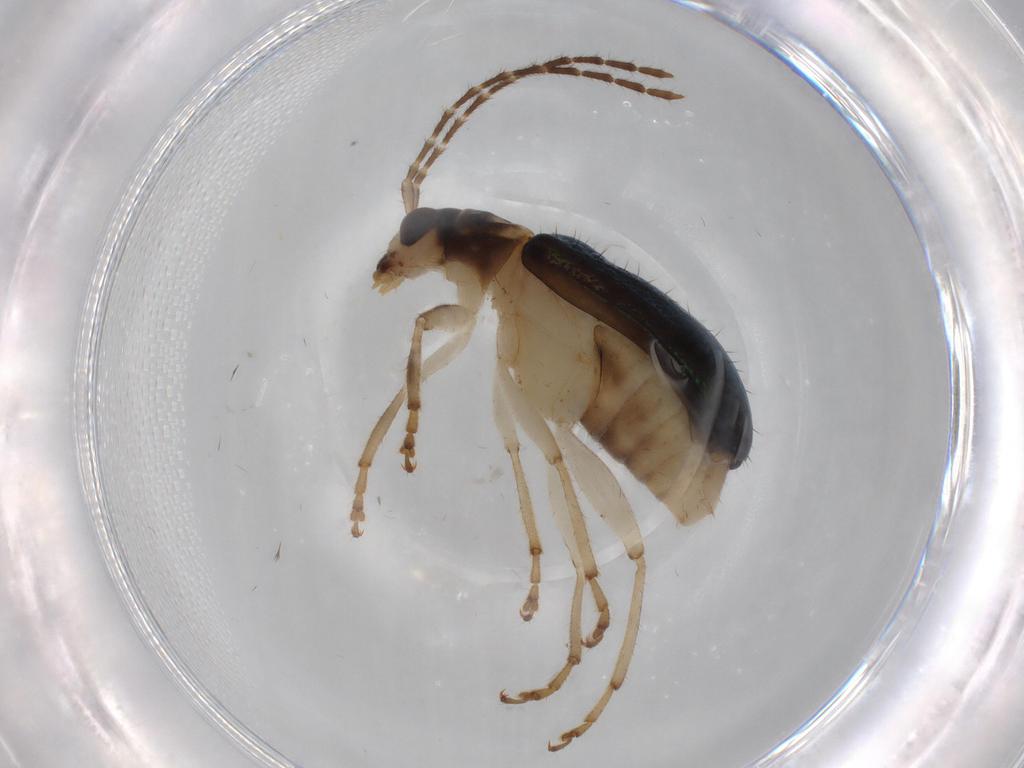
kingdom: Animalia
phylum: Arthropoda
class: Insecta
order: Coleoptera
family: Chrysomelidae
